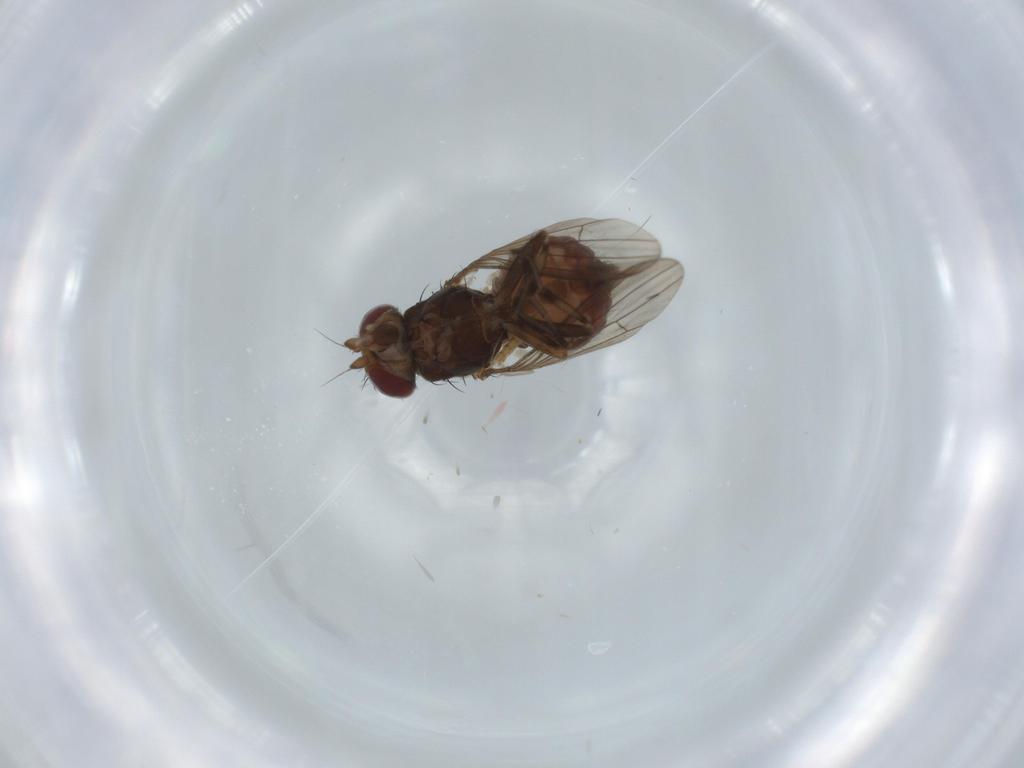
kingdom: Animalia
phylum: Arthropoda
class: Insecta
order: Diptera
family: Heleomyzidae
